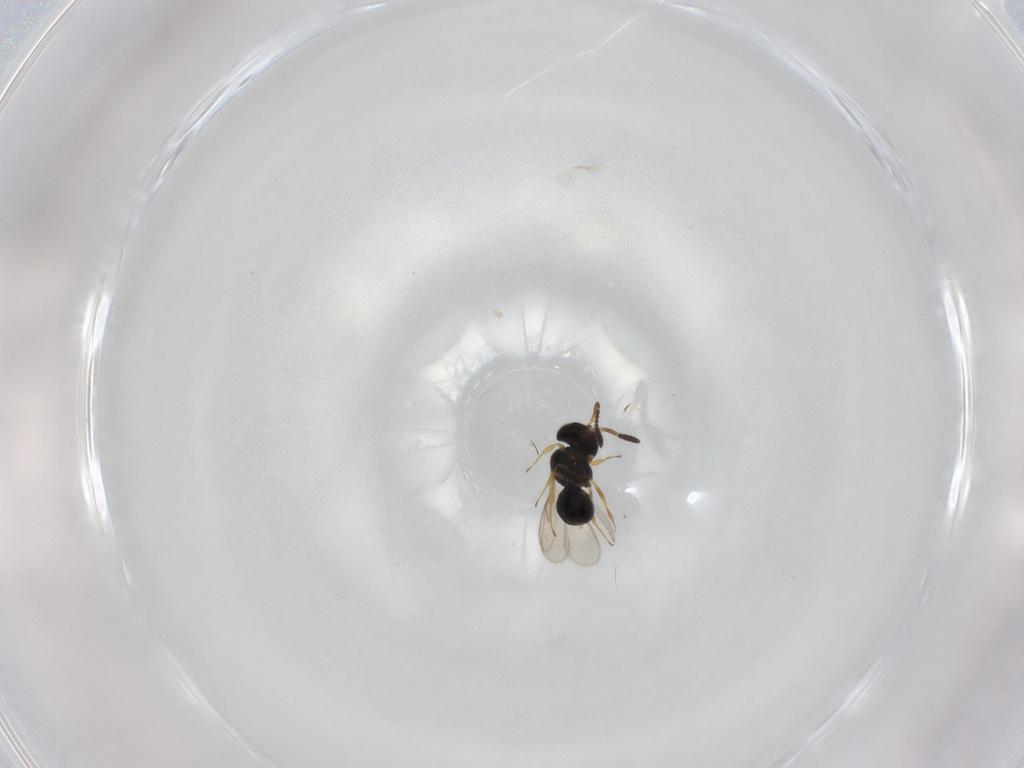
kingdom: Animalia
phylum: Arthropoda
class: Insecta
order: Hymenoptera
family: Scelionidae
